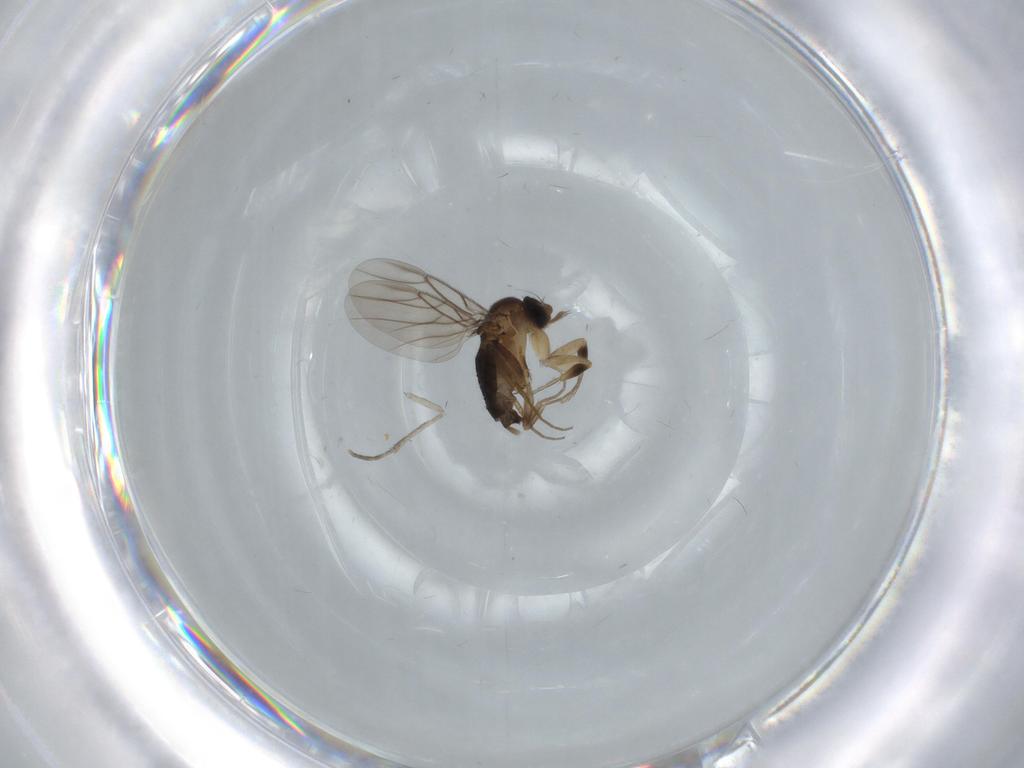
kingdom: Animalia
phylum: Arthropoda
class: Insecta
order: Diptera
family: Phoridae
